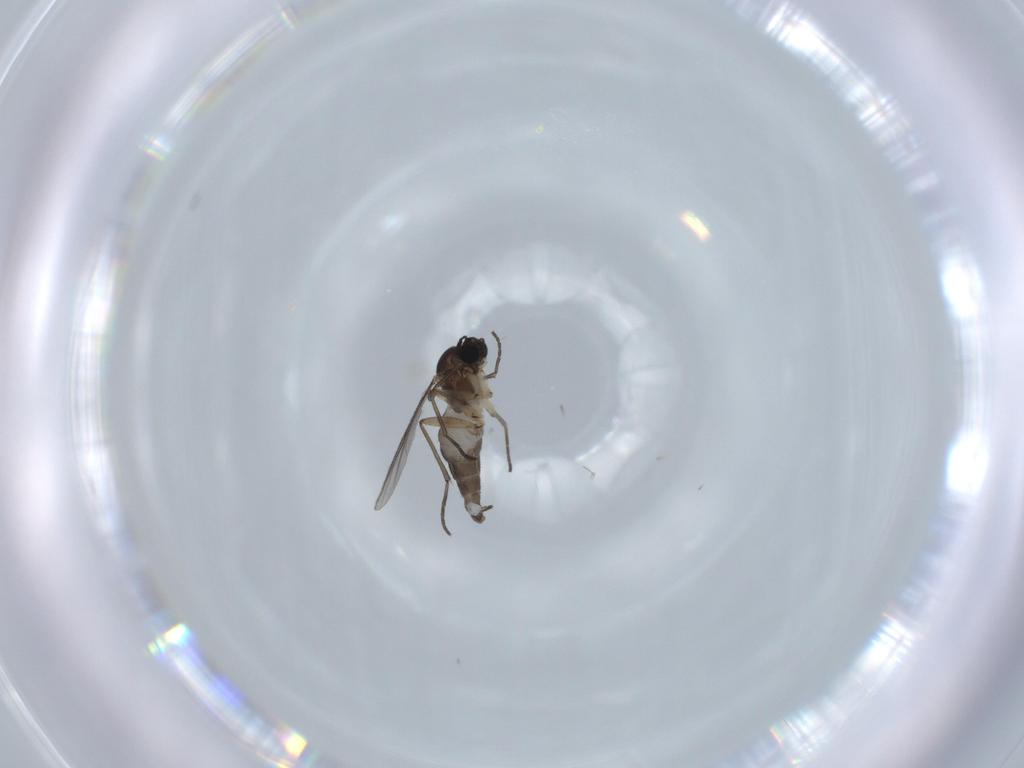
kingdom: Animalia
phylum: Arthropoda
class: Insecta
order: Diptera
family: Sciaridae
